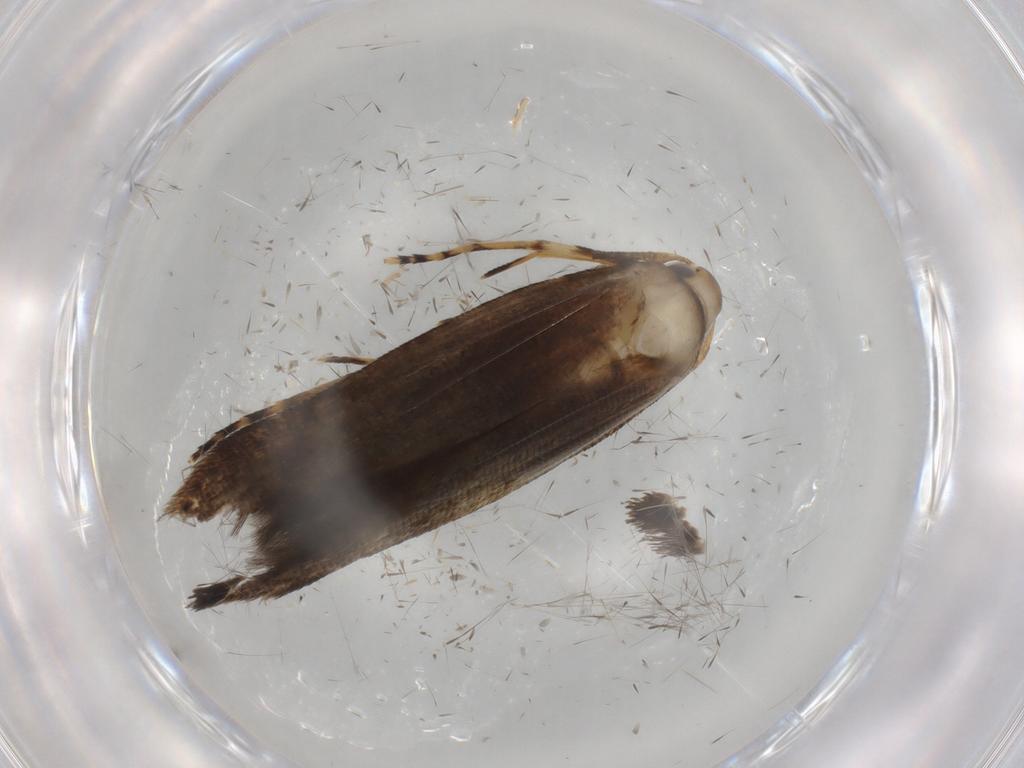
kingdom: Animalia
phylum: Arthropoda
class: Insecta
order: Lepidoptera
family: Cosmopterigidae
